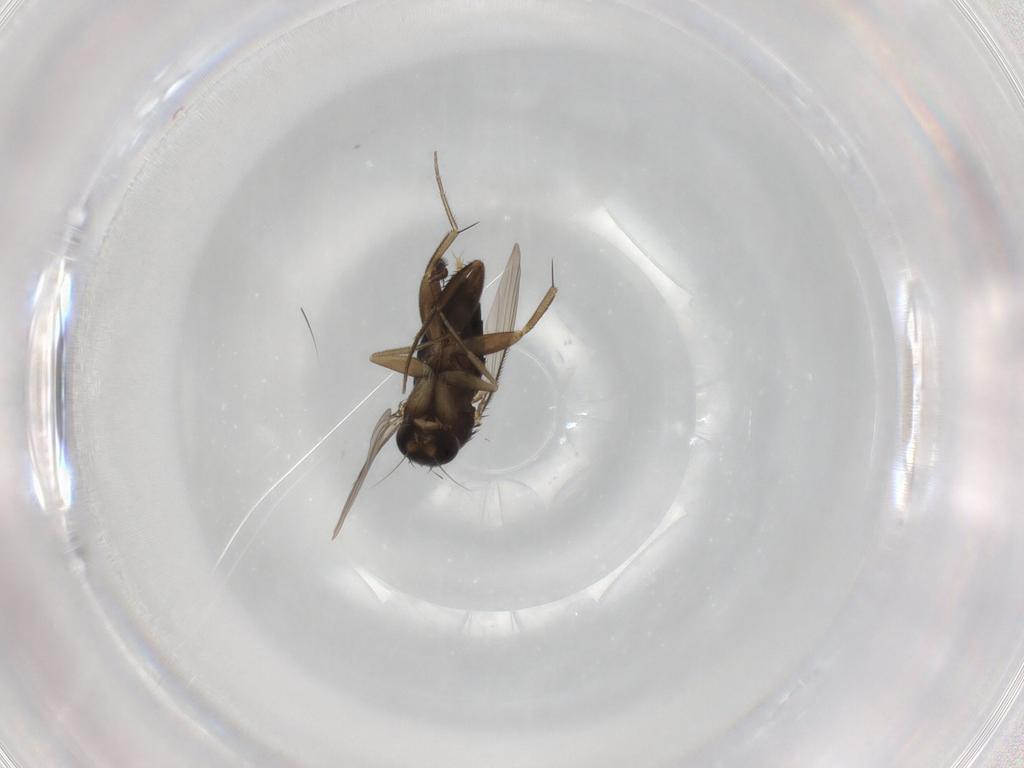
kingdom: Animalia
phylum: Arthropoda
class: Insecta
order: Diptera
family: Phoridae
